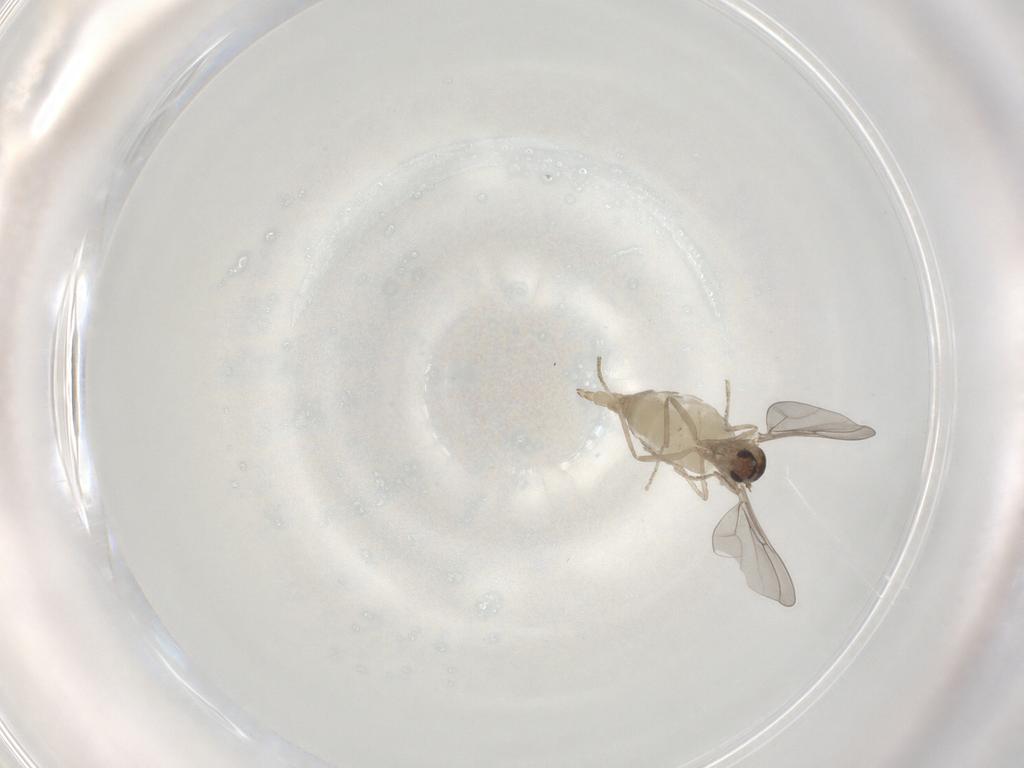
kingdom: Animalia
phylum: Arthropoda
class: Insecta
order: Diptera
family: Cecidomyiidae
